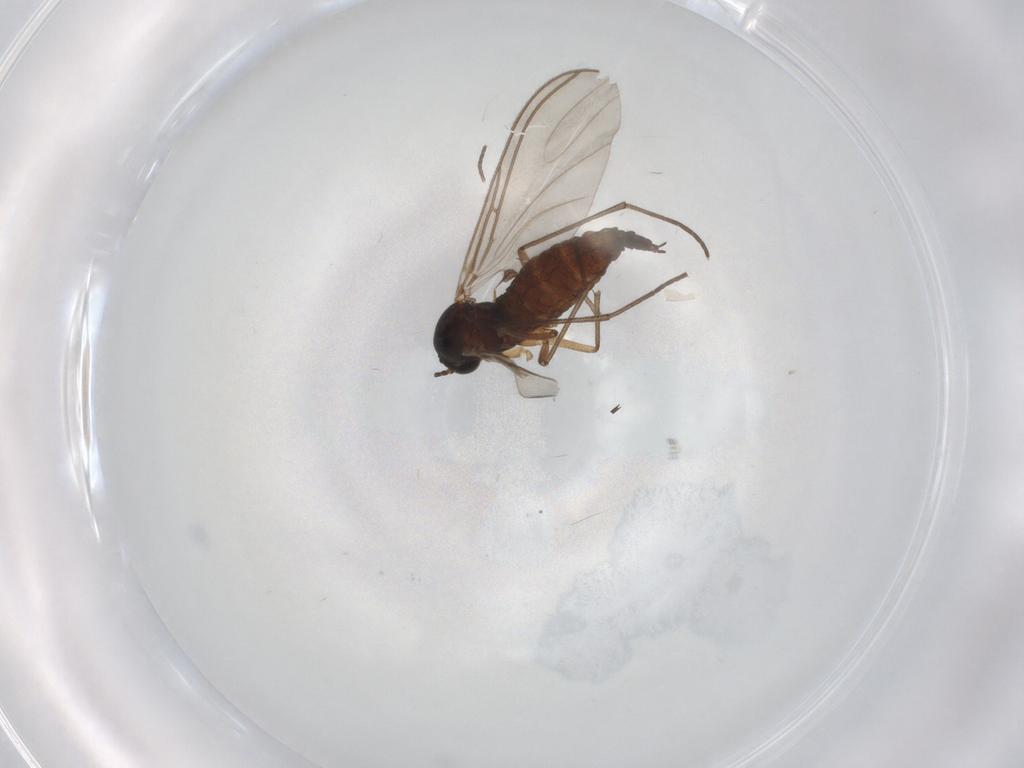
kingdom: Animalia
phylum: Arthropoda
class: Insecta
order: Diptera
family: Sciaridae
